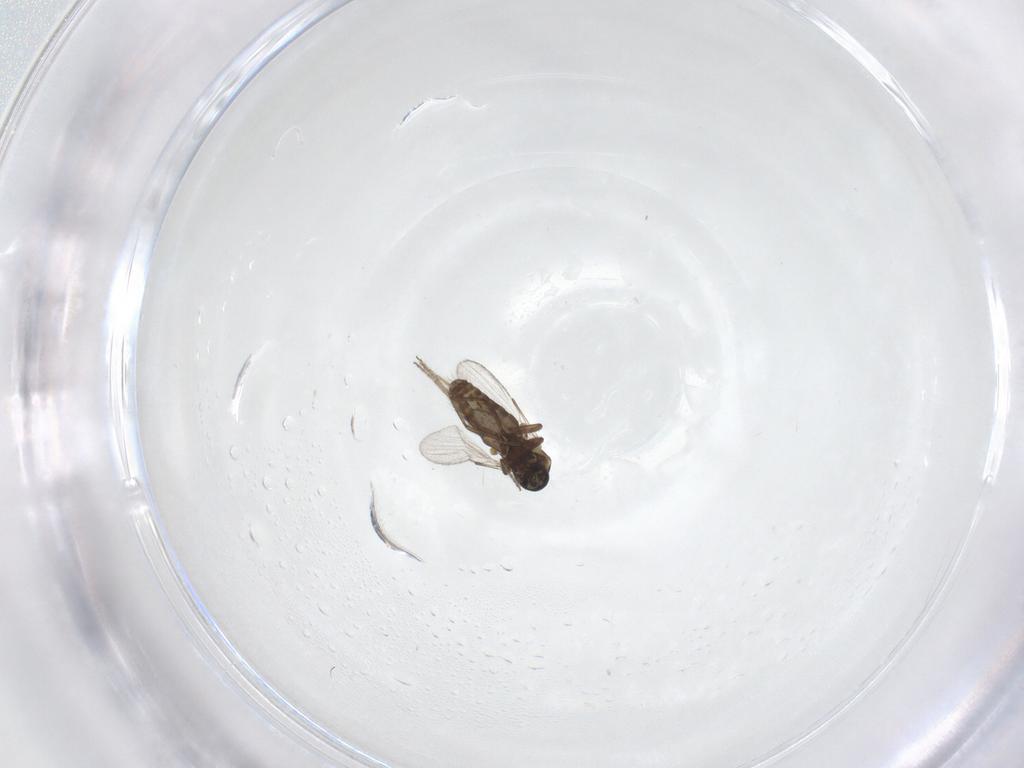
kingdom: Animalia
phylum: Arthropoda
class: Insecta
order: Diptera
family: Ceratopogonidae
